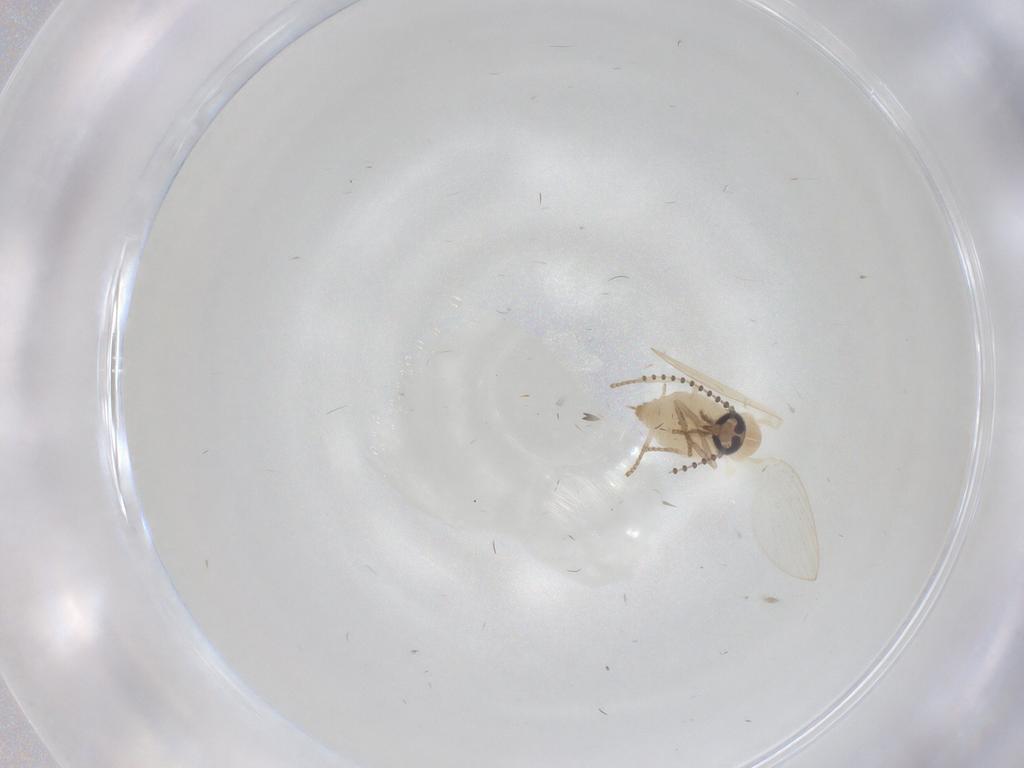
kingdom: Animalia
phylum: Arthropoda
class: Insecta
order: Diptera
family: Psychodidae
